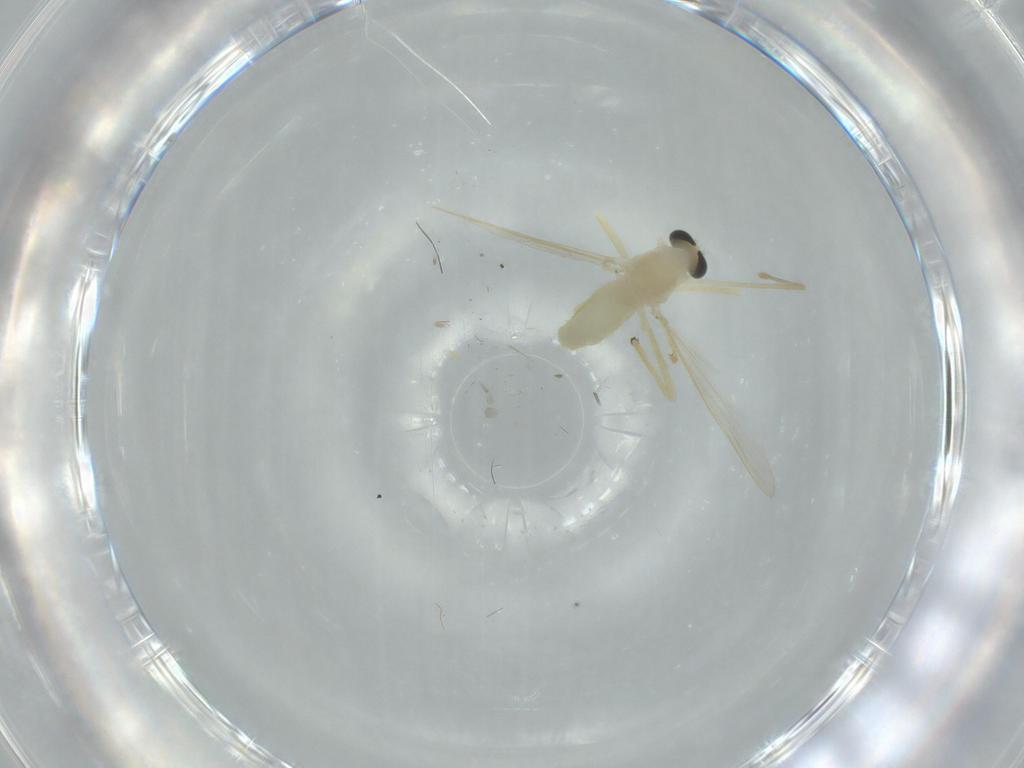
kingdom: Animalia
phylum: Arthropoda
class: Insecta
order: Diptera
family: Chironomidae
